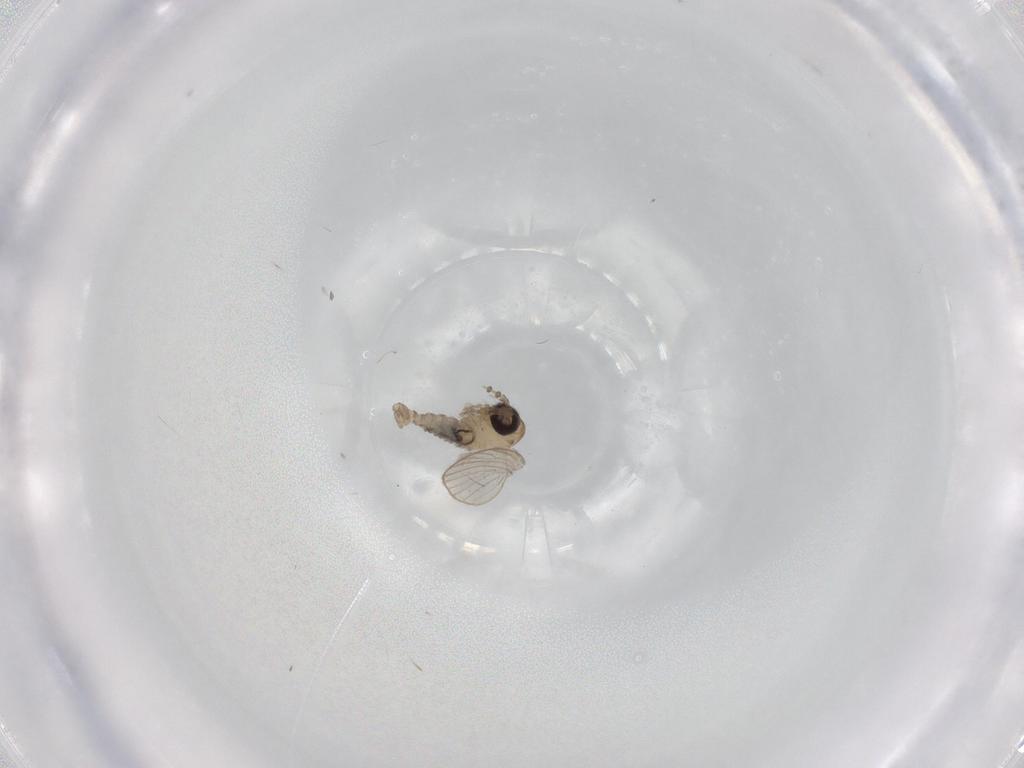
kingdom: Animalia
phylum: Arthropoda
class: Insecta
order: Diptera
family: Psychodidae
